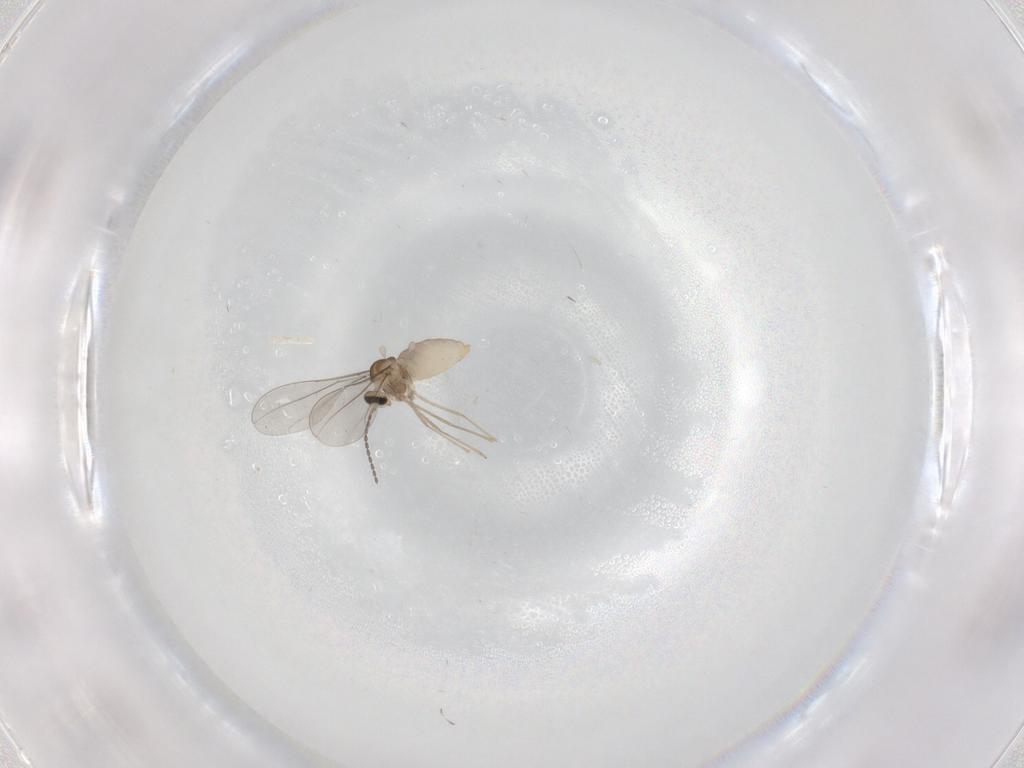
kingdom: Animalia
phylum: Arthropoda
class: Insecta
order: Diptera
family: Cecidomyiidae
